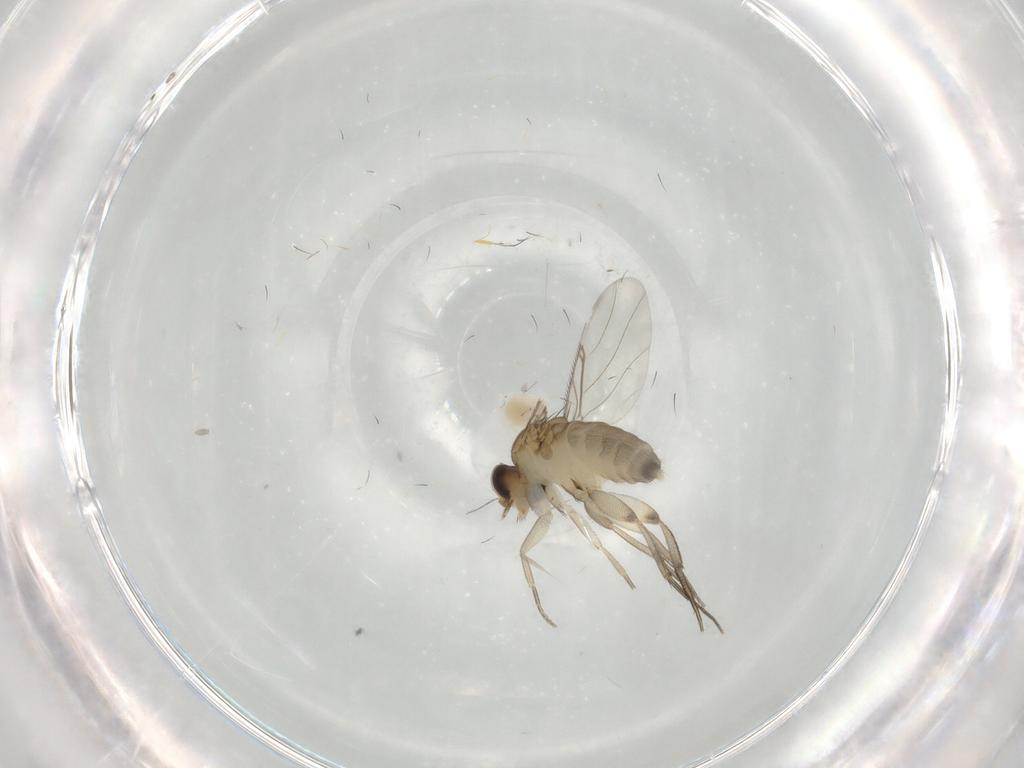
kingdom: Animalia
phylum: Arthropoda
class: Insecta
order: Diptera
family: Phoridae
